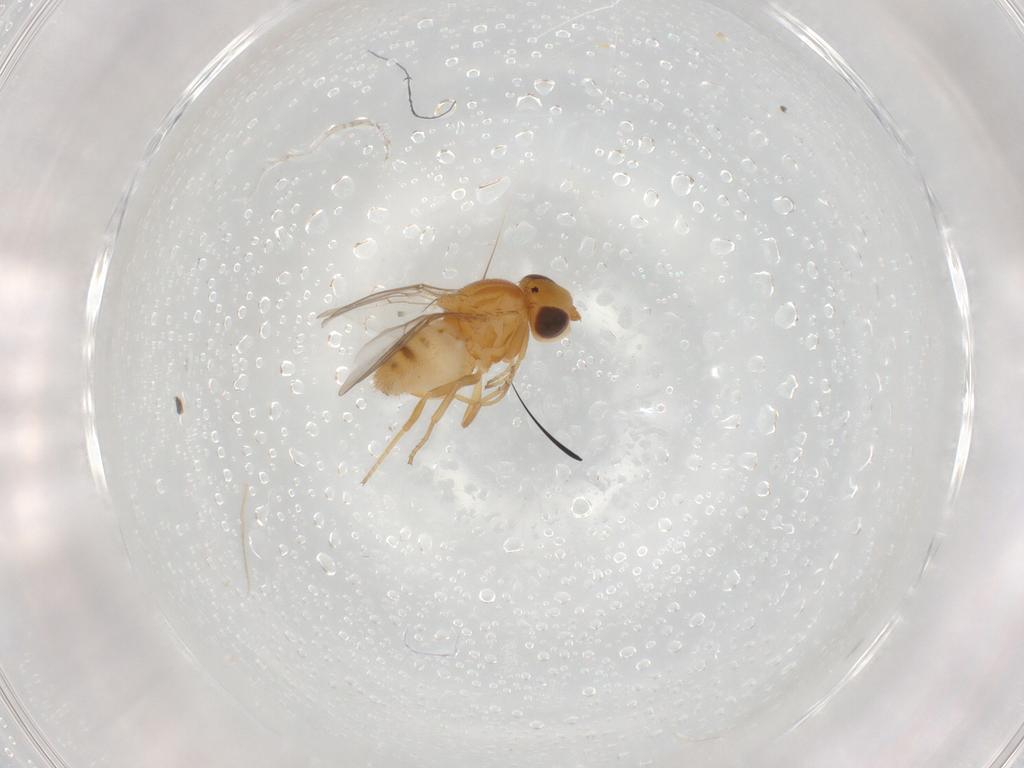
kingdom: Animalia
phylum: Arthropoda
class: Insecta
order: Diptera
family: Chloropidae
